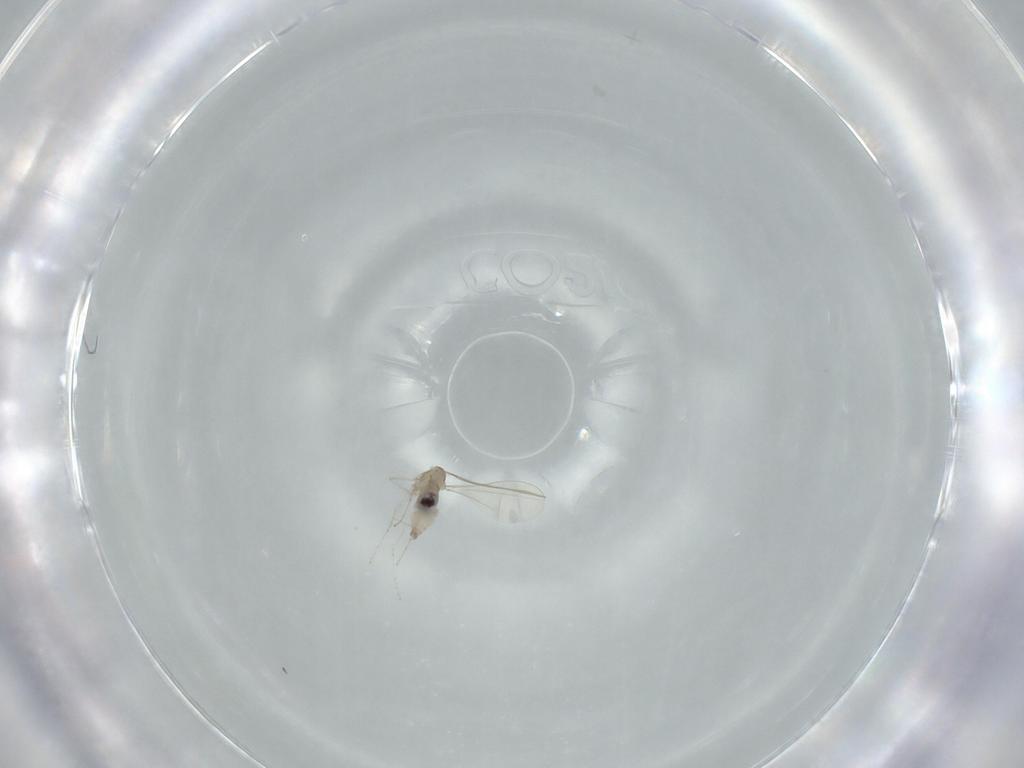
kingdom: Animalia
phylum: Arthropoda
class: Insecta
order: Diptera
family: Drosophilidae
